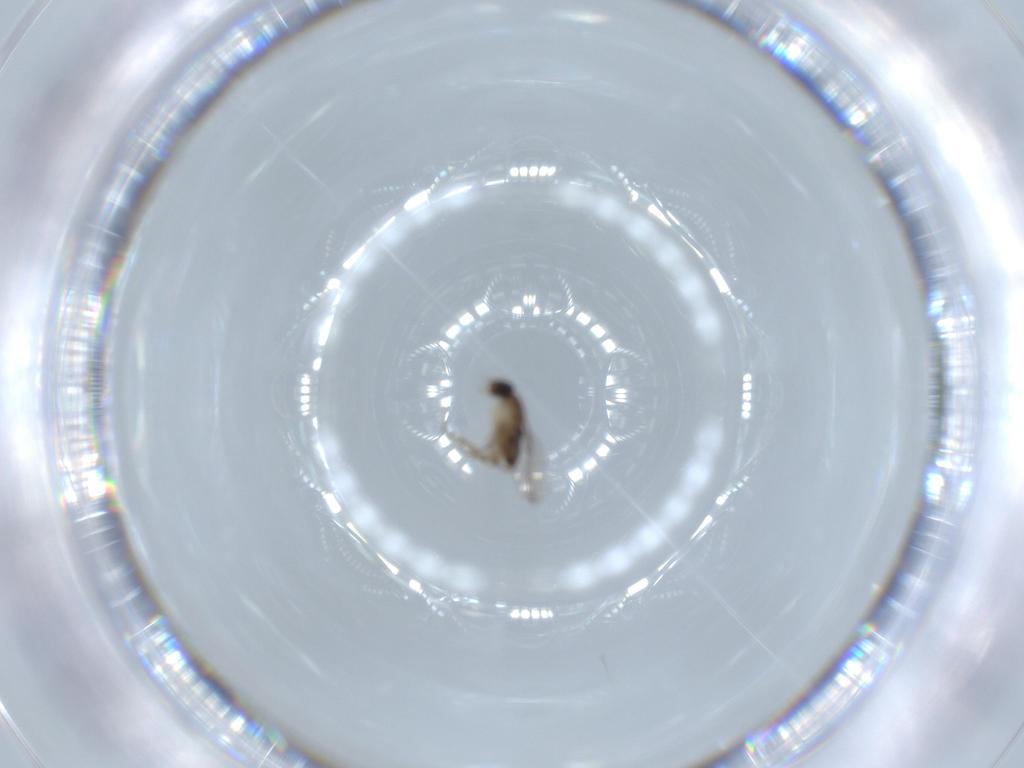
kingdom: Animalia
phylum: Arthropoda
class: Insecta
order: Diptera
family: Phoridae
